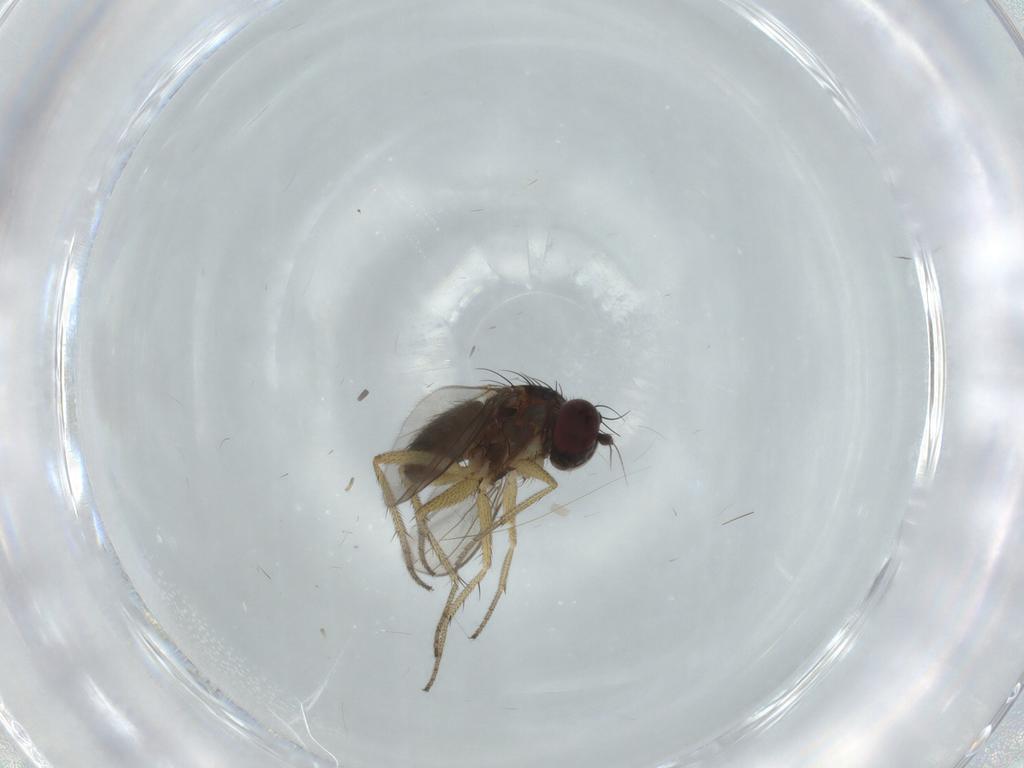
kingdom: Animalia
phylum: Arthropoda
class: Insecta
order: Diptera
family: Dolichopodidae
